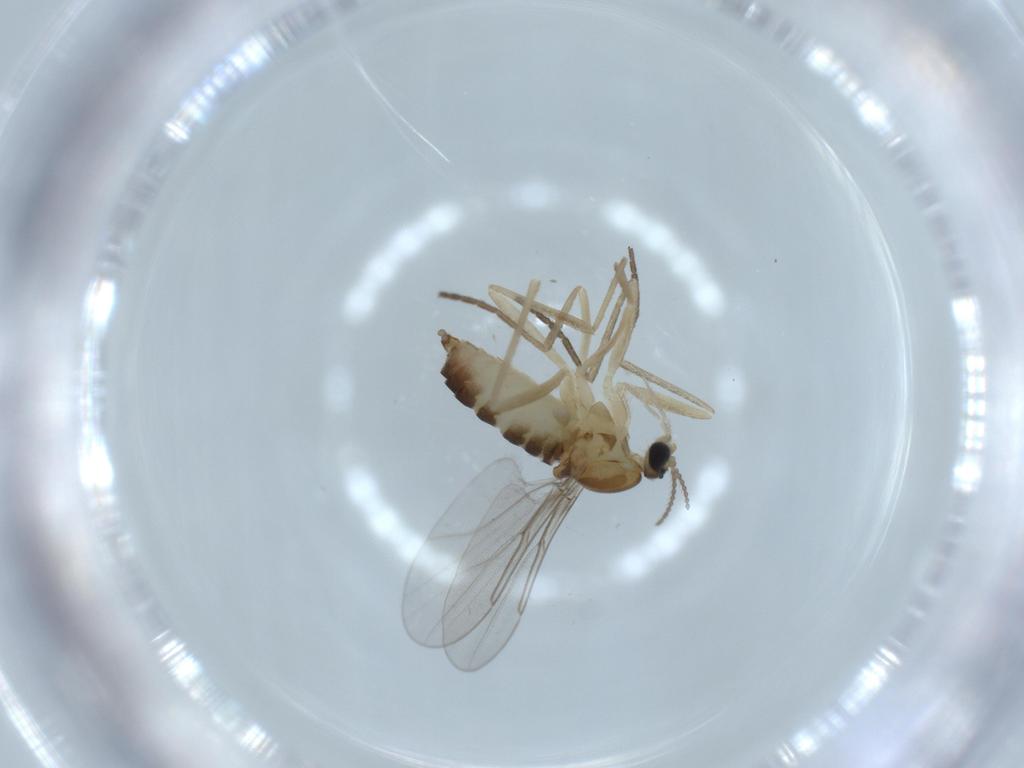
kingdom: Animalia
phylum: Arthropoda
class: Insecta
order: Diptera
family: Cecidomyiidae
